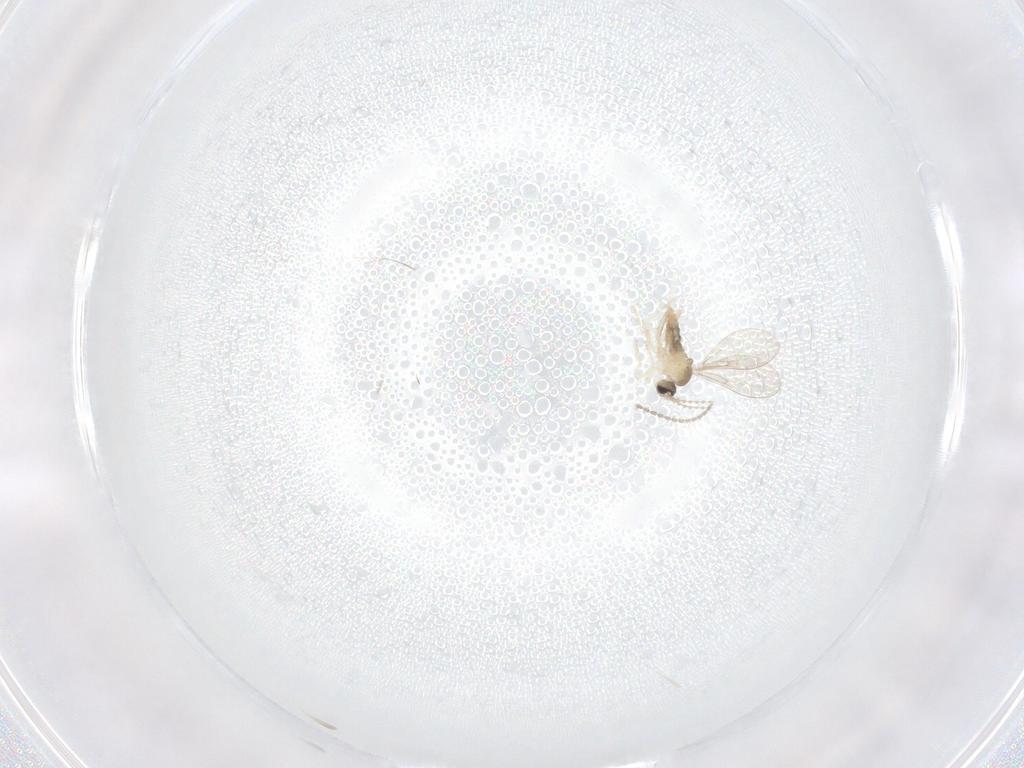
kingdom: Animalia
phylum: Arthropoda
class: Insecta
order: Diptera
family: Cecidomyiidae
